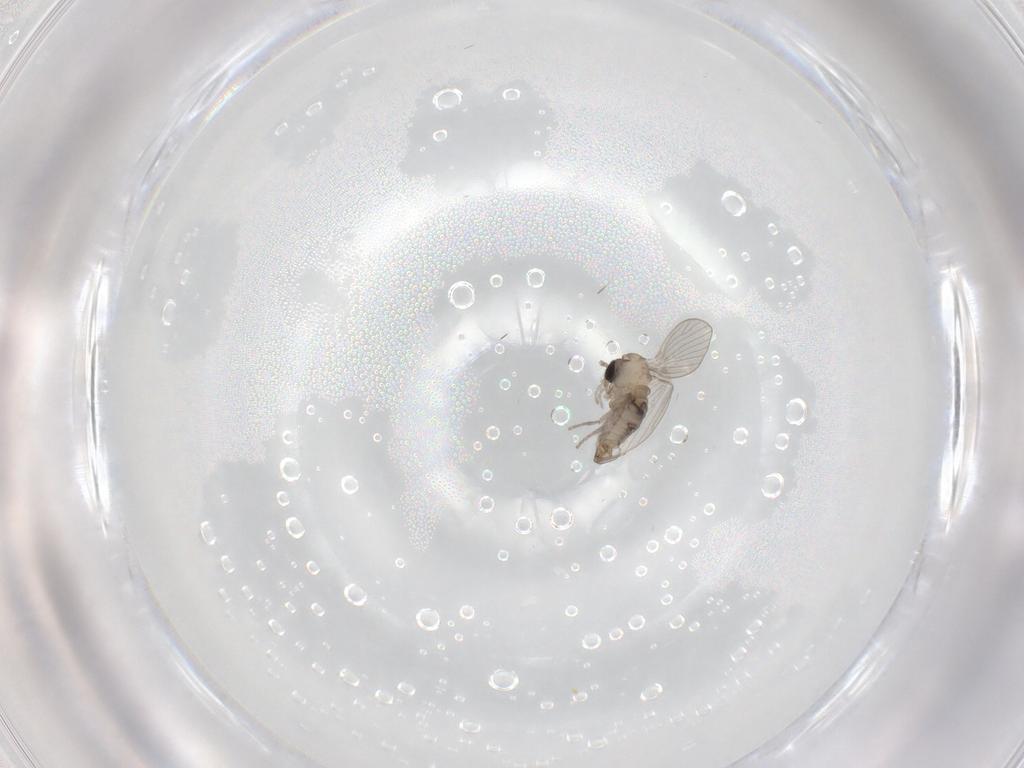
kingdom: Animalia
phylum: Arthropoda
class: Insecta
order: Diptera
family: Psychodidae
